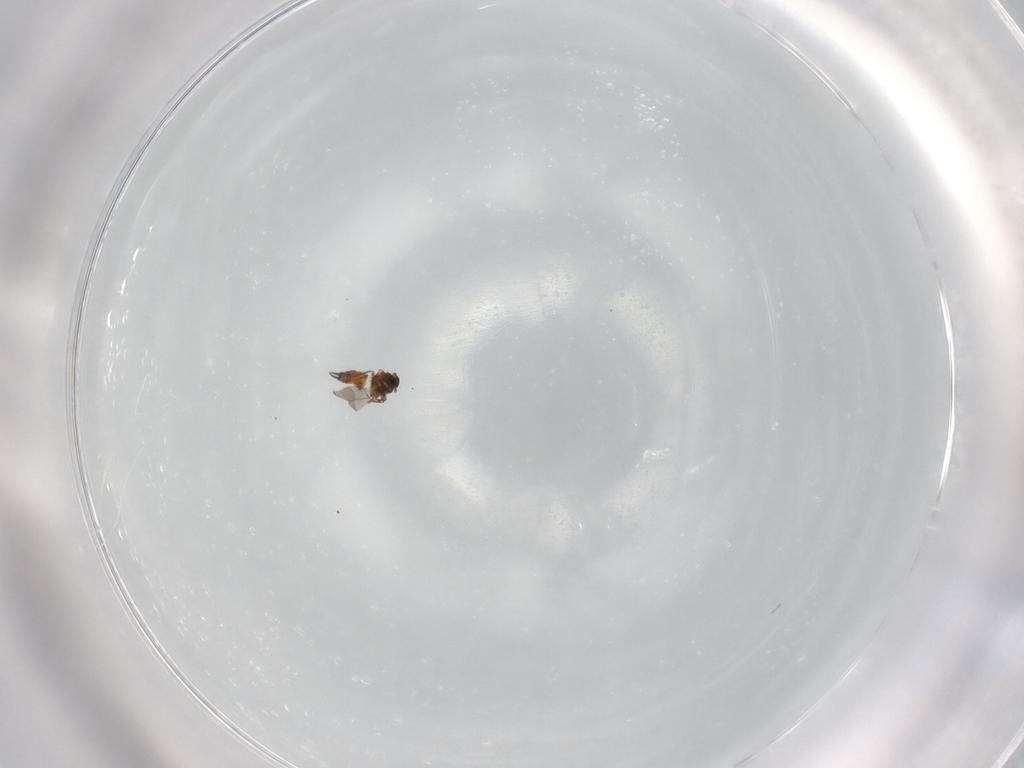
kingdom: Animalia
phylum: Arthropoda
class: Insecta
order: Hemiptera
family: Aleyrodidae
